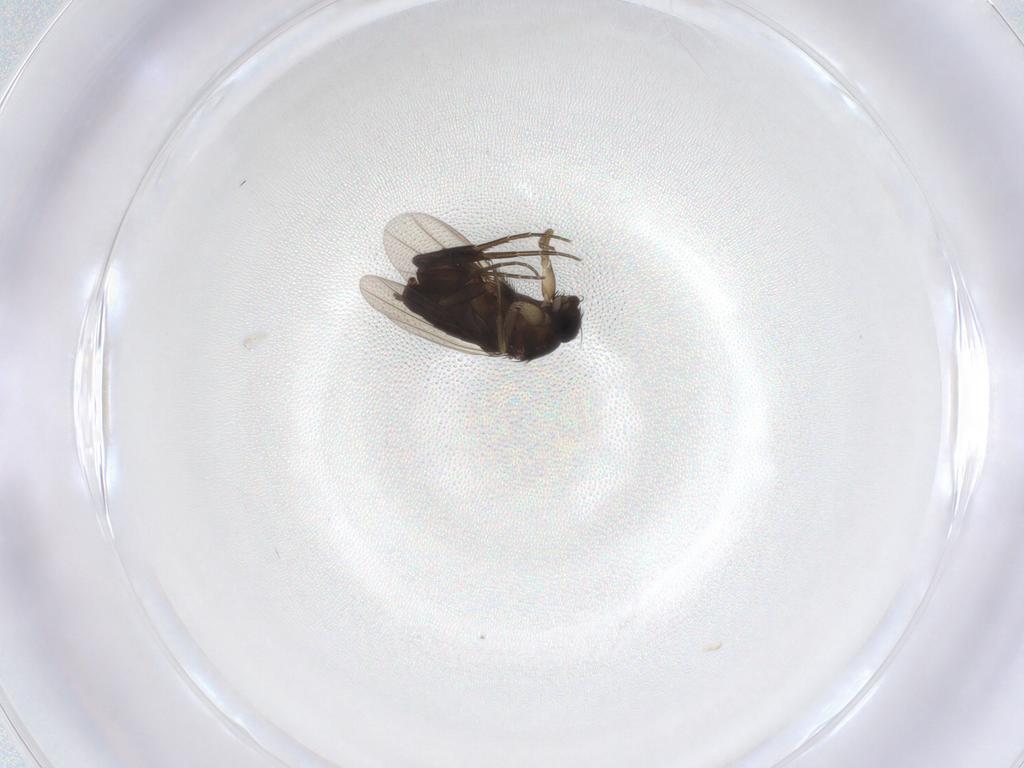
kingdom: Animalia
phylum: Arthropoda
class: Insecta
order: Diptera
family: Phoridae
